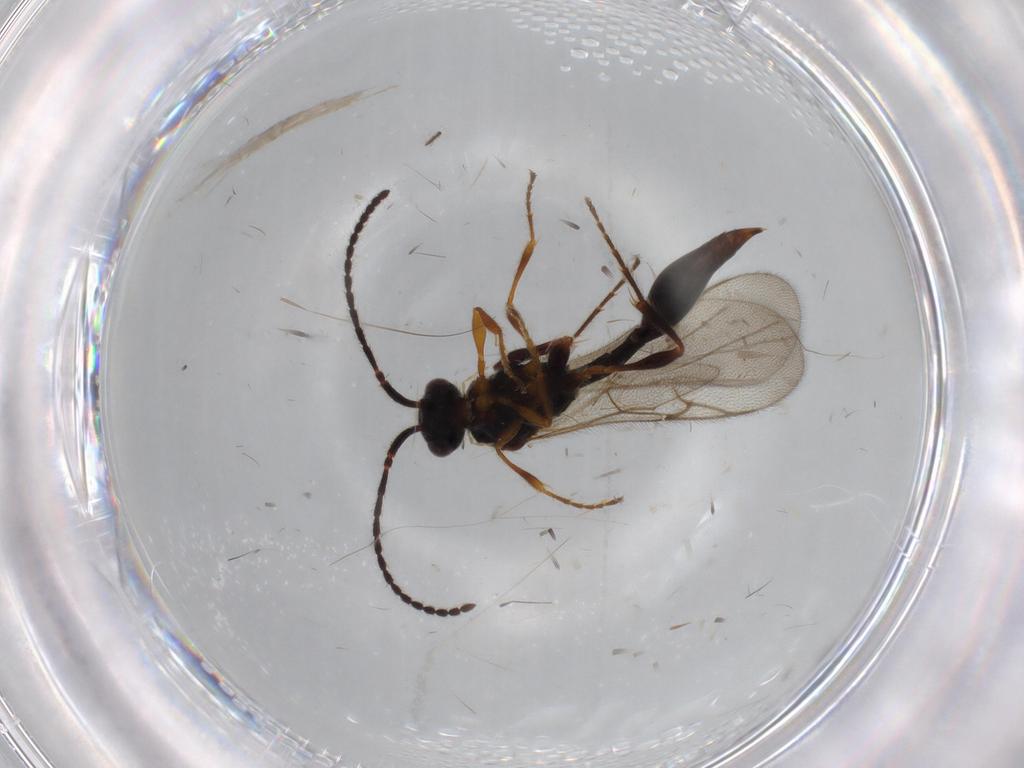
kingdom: Animalia
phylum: Arthropoda
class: Insecta
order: Hymenoptera
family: Diapriidae
